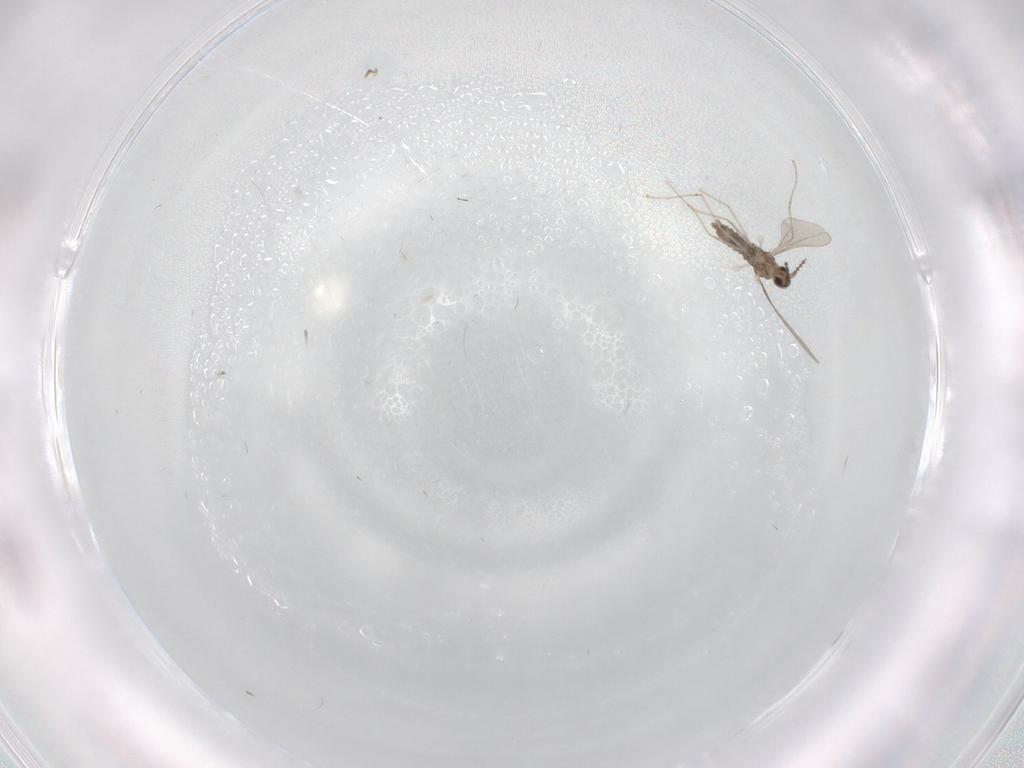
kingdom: Animalia
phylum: Arthropoda
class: Insecta
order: Diptera
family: Cecidomyiidae
